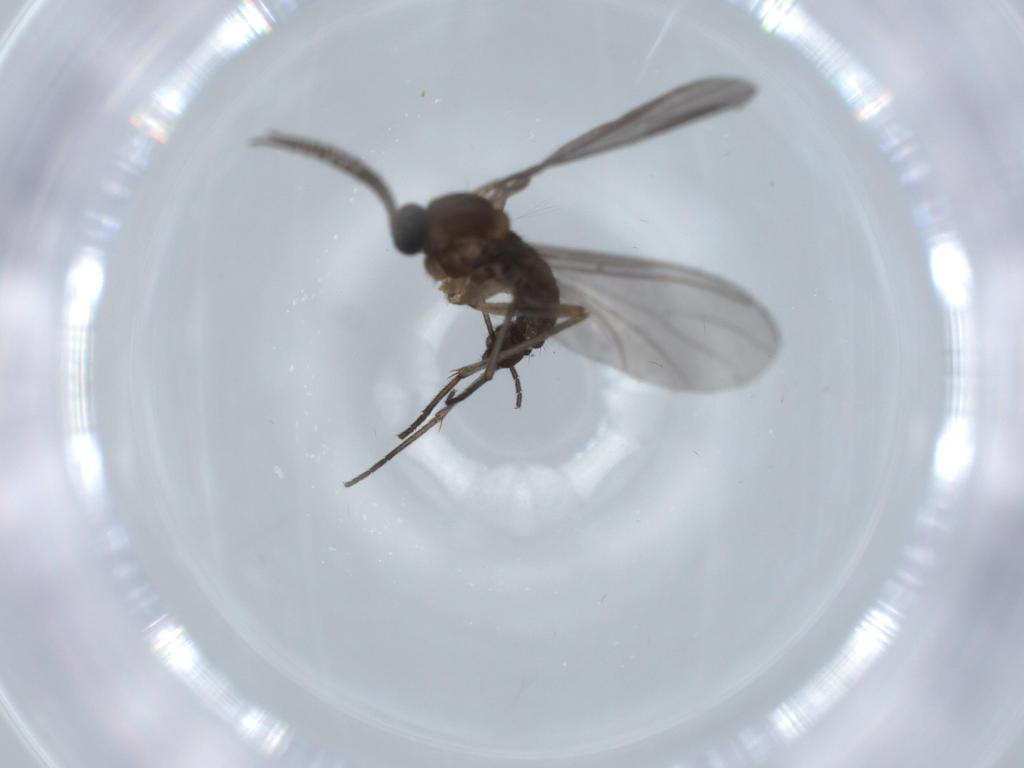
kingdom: Animalia
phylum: Arthropoda
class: Insecta
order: Diptera
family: Sciaridae
